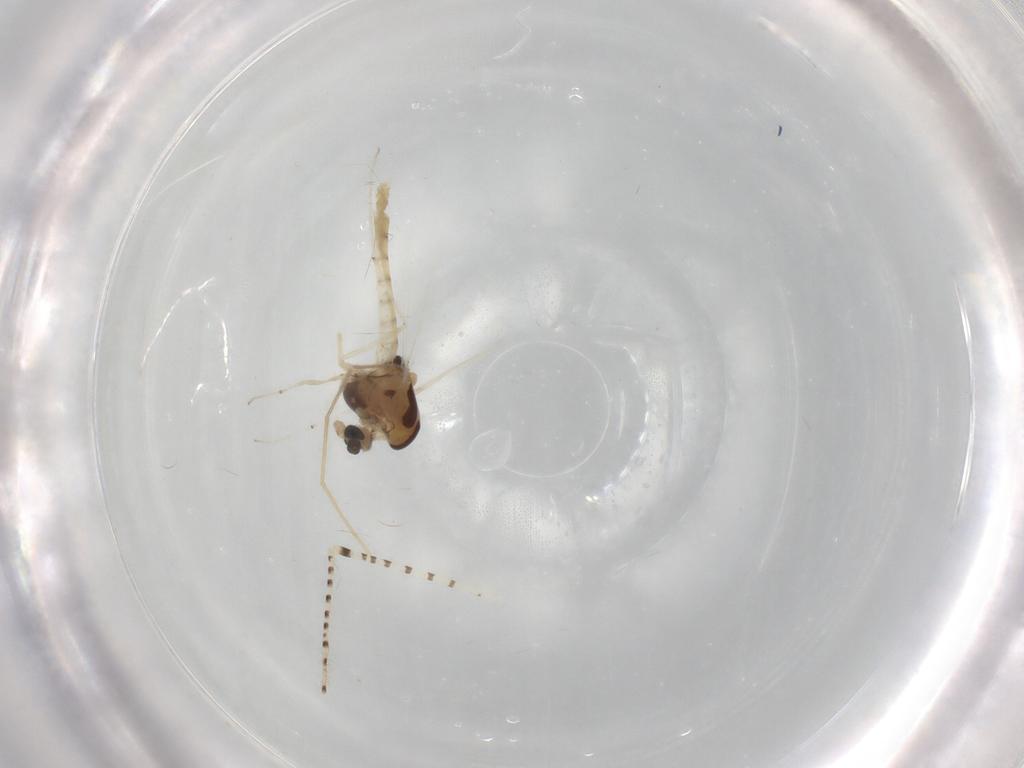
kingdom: Animalia
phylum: Arthropoda
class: Insecta
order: Diptera
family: Chironomidae
